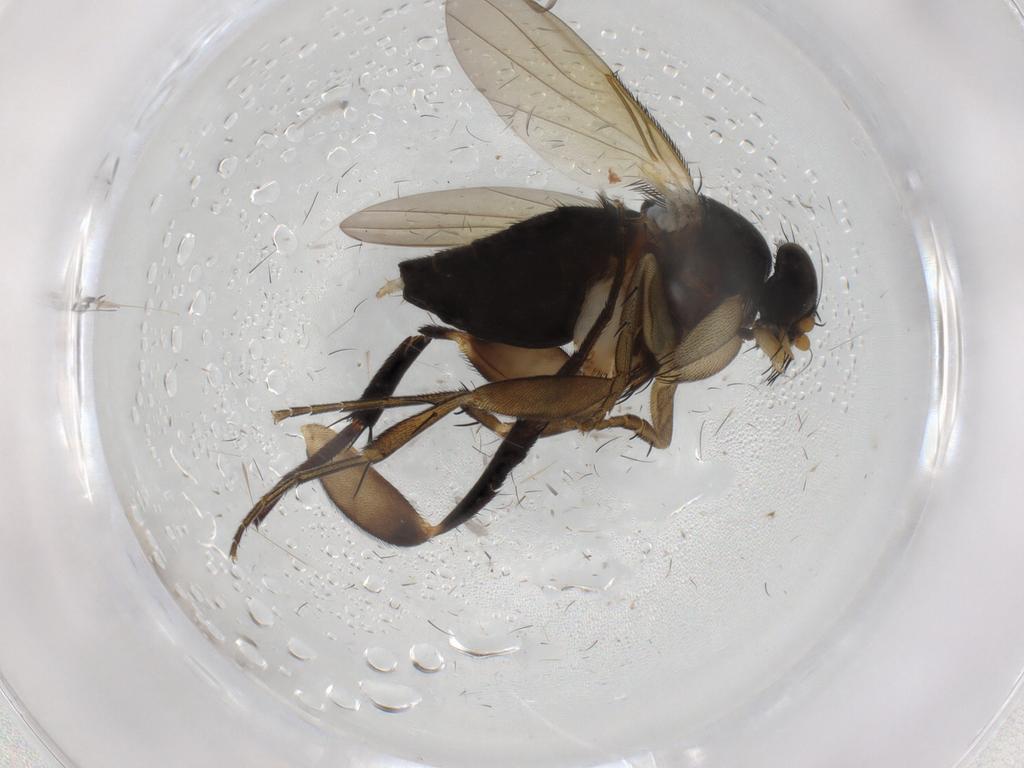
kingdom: Animalia
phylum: Arthropoda
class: Insecta
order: Diptera
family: Phoridae
